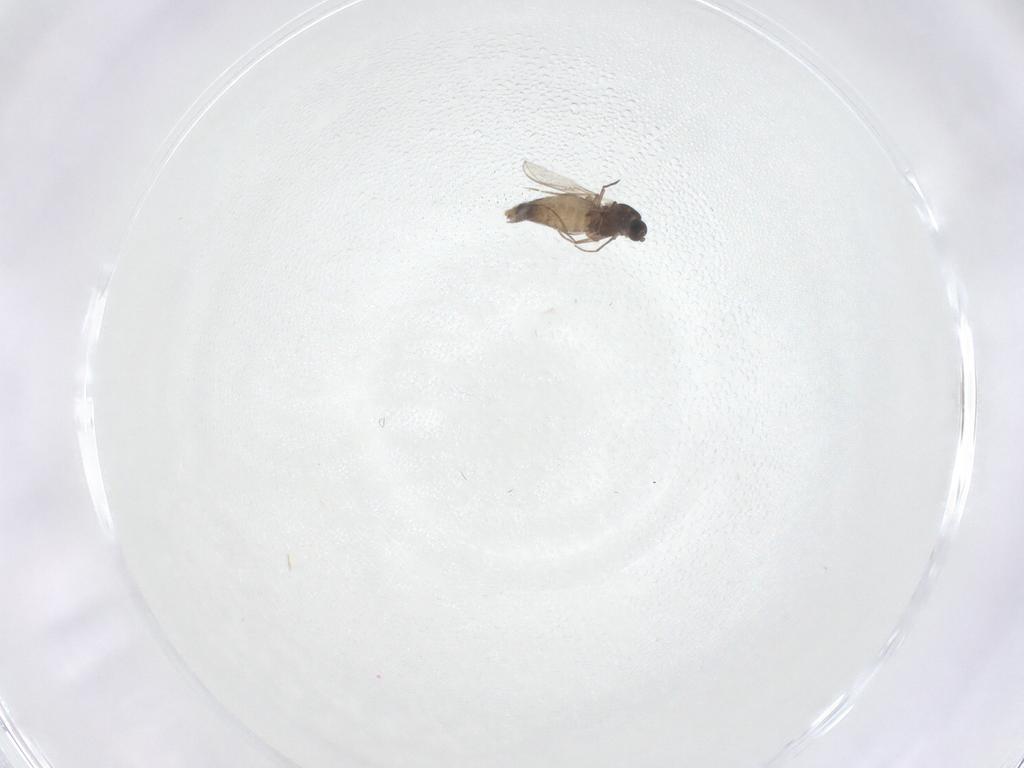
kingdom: Animalia
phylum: Arthropoda
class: Insecta
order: Diptera
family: Chironomidae
